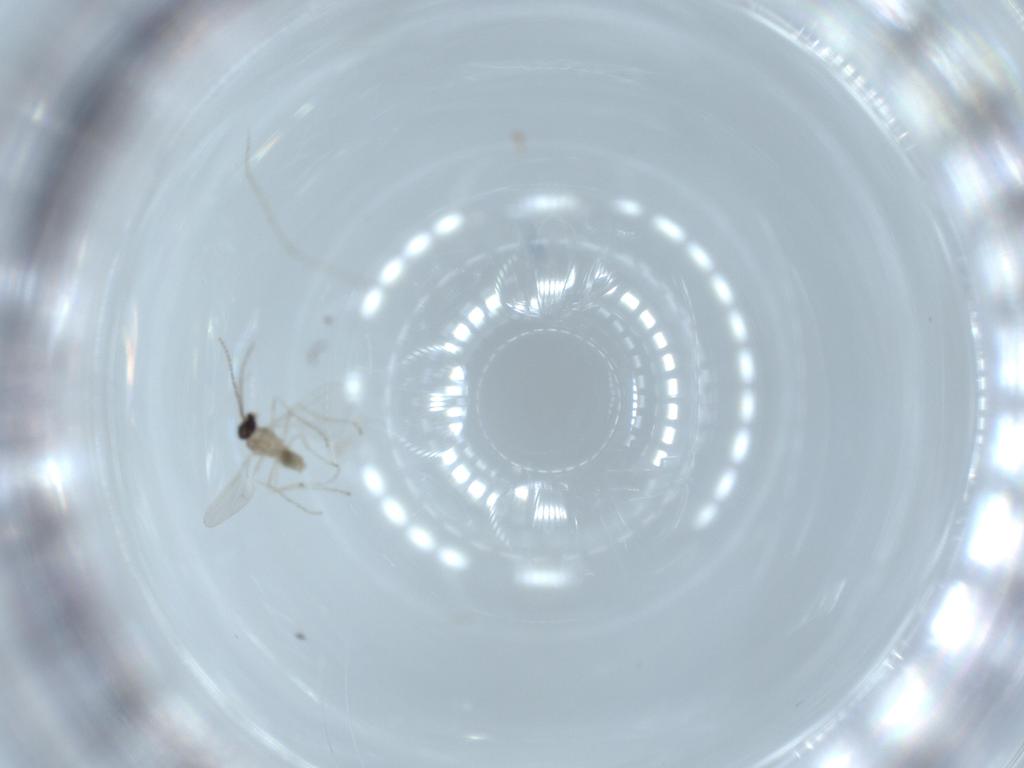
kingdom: Animalia
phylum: Arthropoda
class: Insecta
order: Diptera
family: Cecidomyiidae
